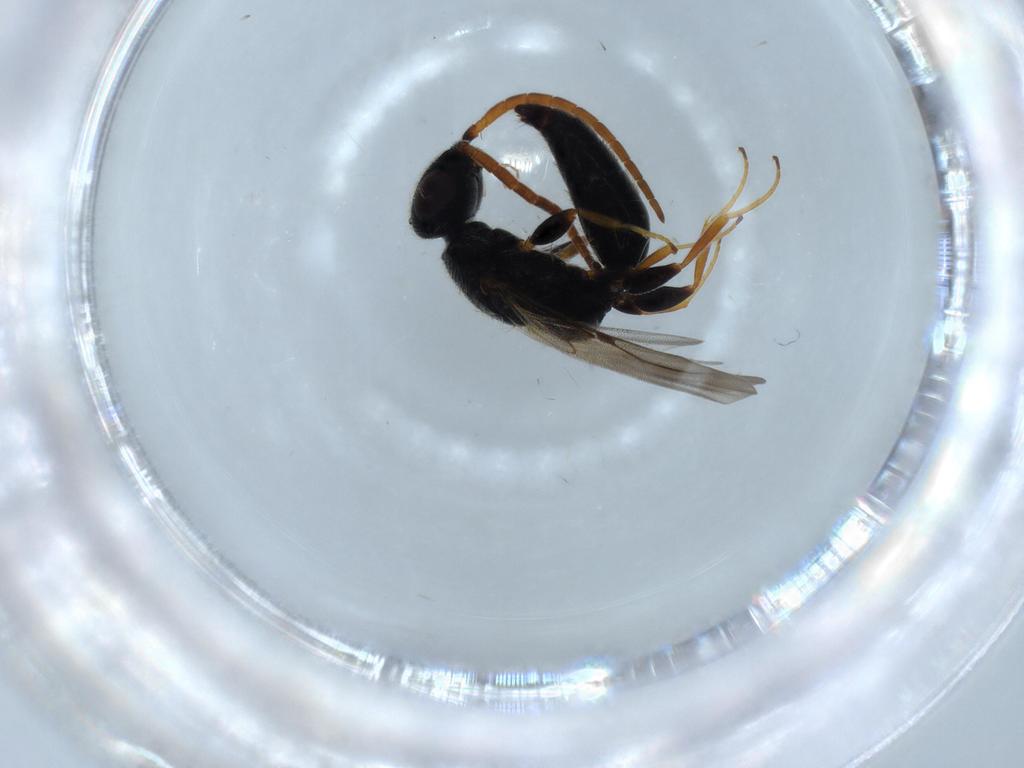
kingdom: Animalia
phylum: Arthropoda
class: Insecta
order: Hymenoptera
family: Bethylidae
